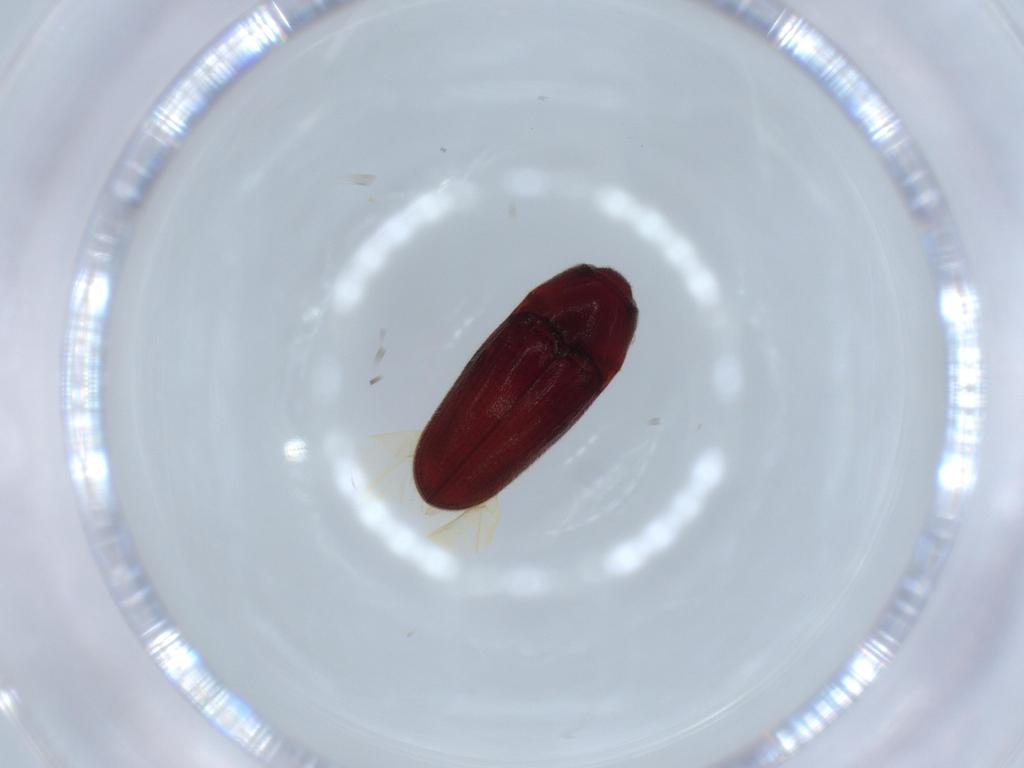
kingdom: Animalia
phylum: Arthropoda
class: Insecta
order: Coleoptera
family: Throscidae
